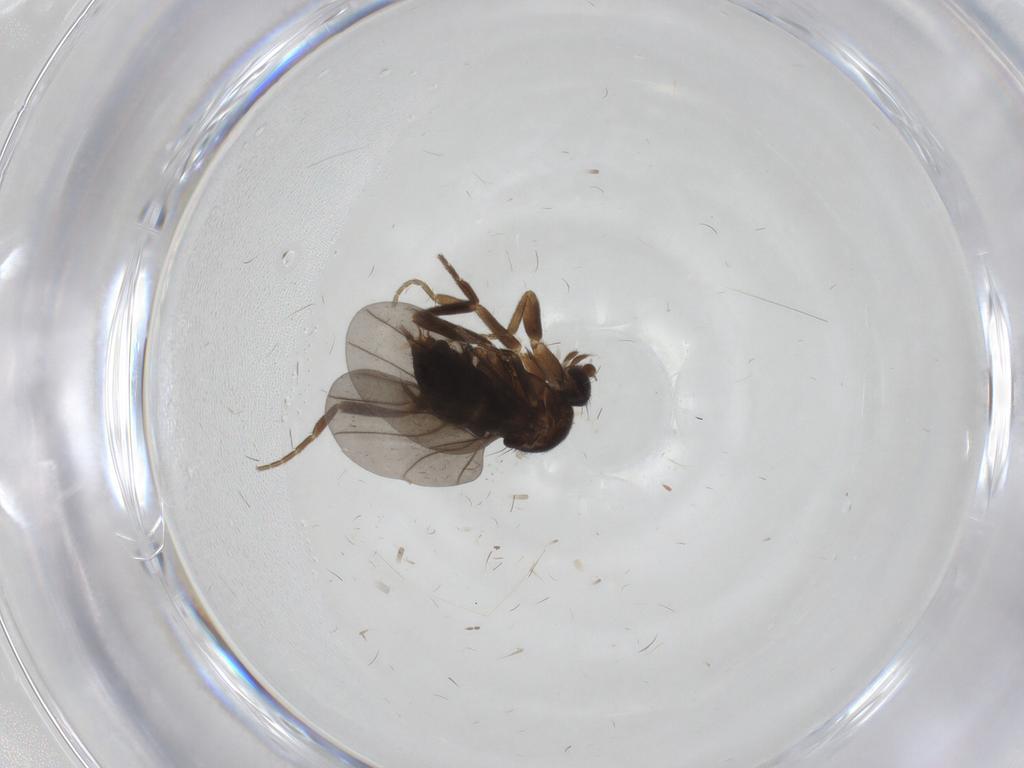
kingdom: Animalia
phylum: Arthropoda
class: Insecta
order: Diptera
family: Phoridae
